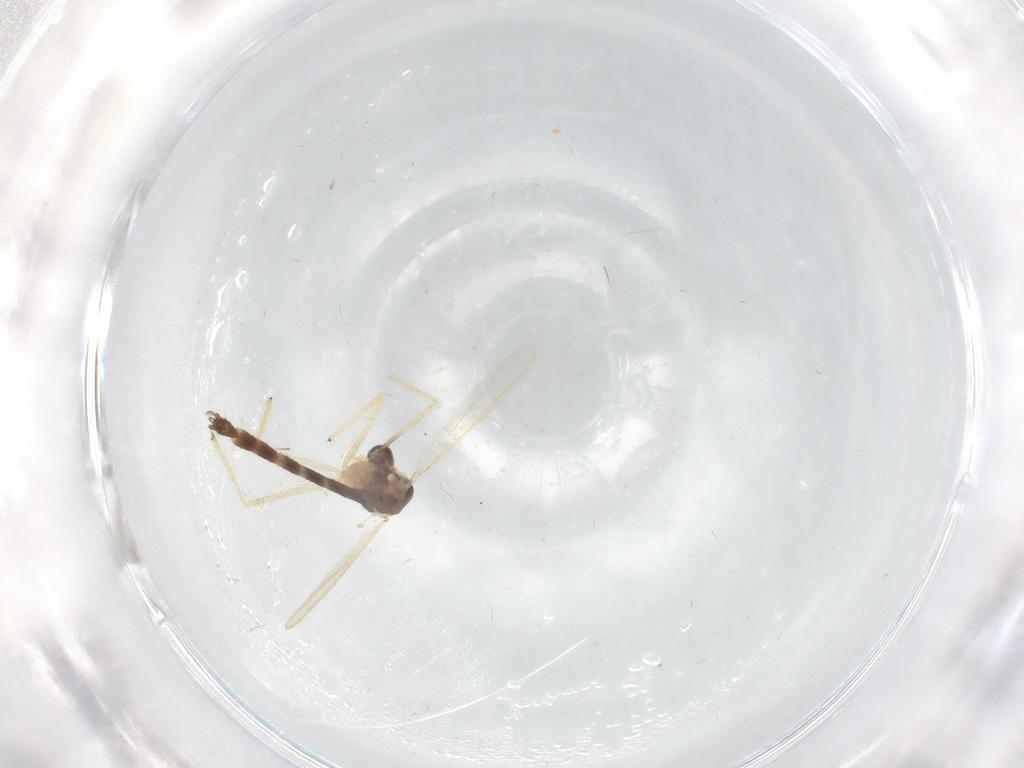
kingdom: Animalia
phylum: Arthropoda
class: Insecta
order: Diptera
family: Chironomidae
